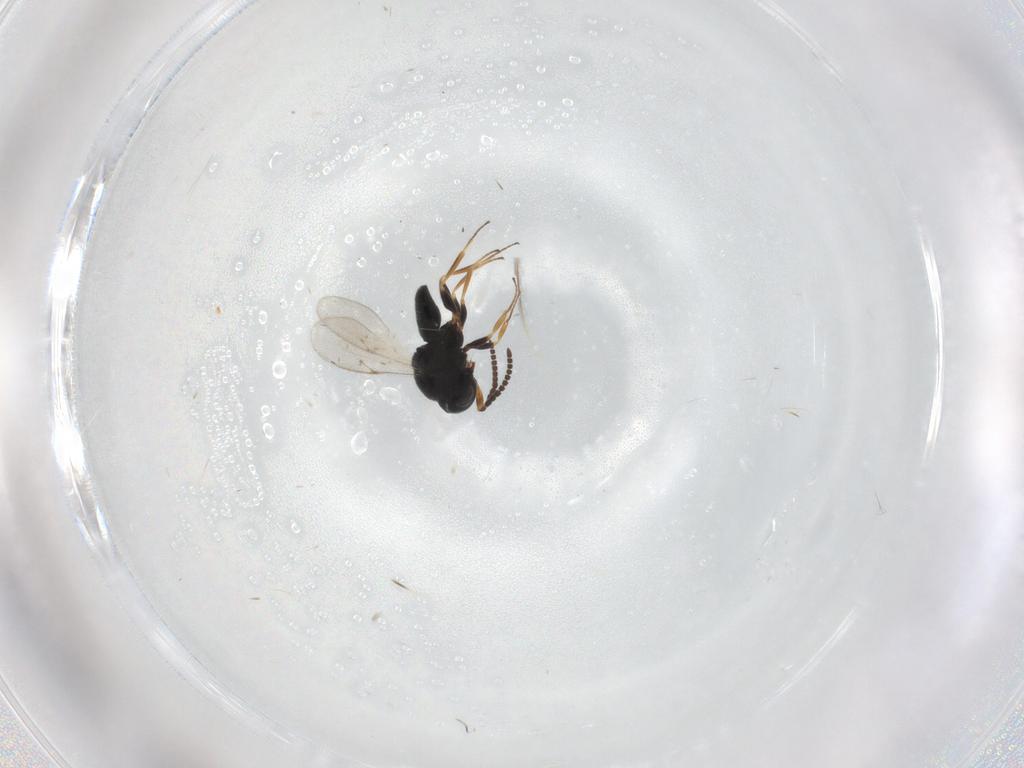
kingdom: Animalia
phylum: Arthropoda
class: Insecta
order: Coleoptera
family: Curculionidae
